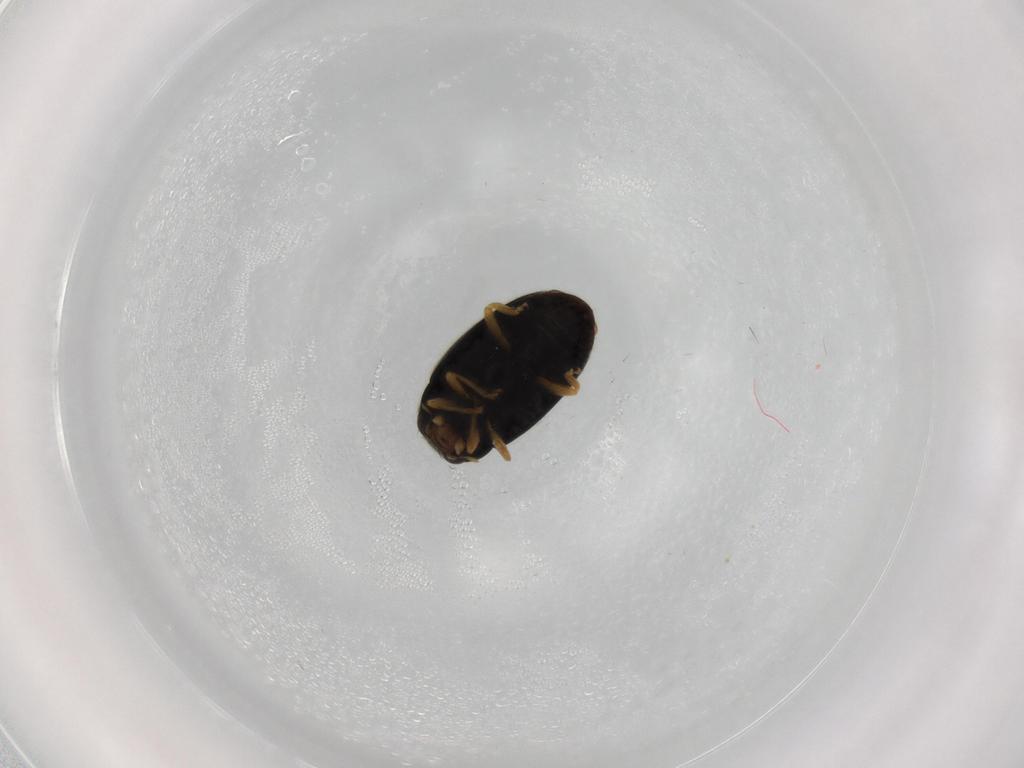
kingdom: Animalia
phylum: Arthropoda
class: Insecta
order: Coleoptera
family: Coccinellidae
